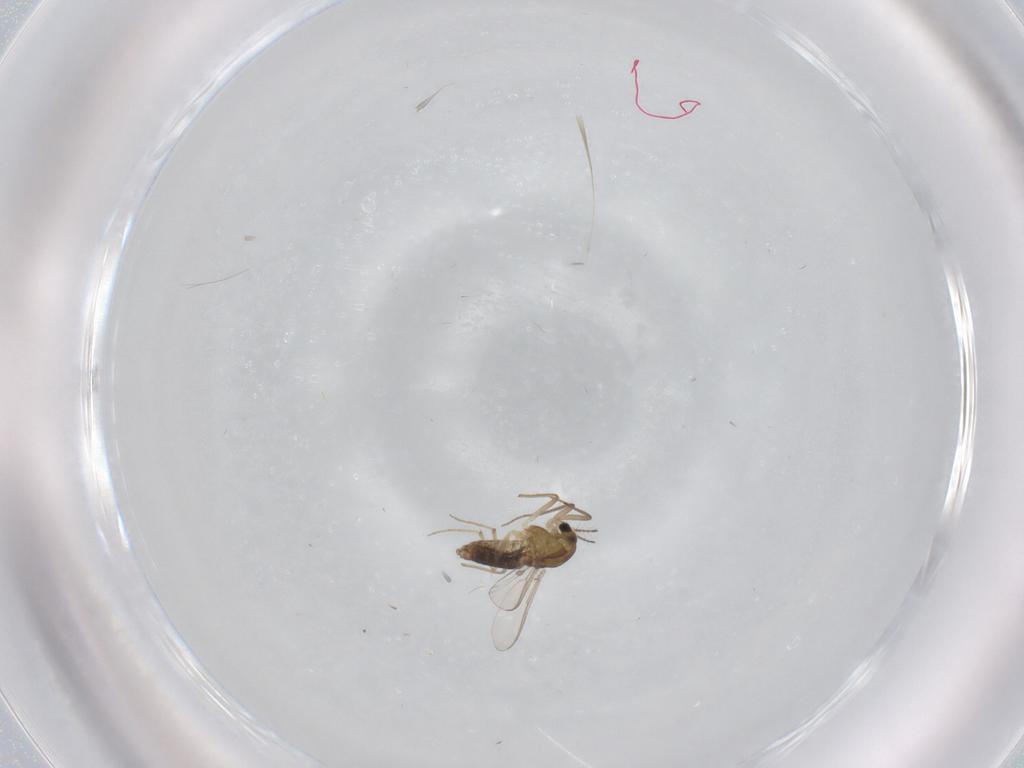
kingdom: Animalia
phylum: Arthropoda
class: Insecta
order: Diptera
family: Chironomidae
